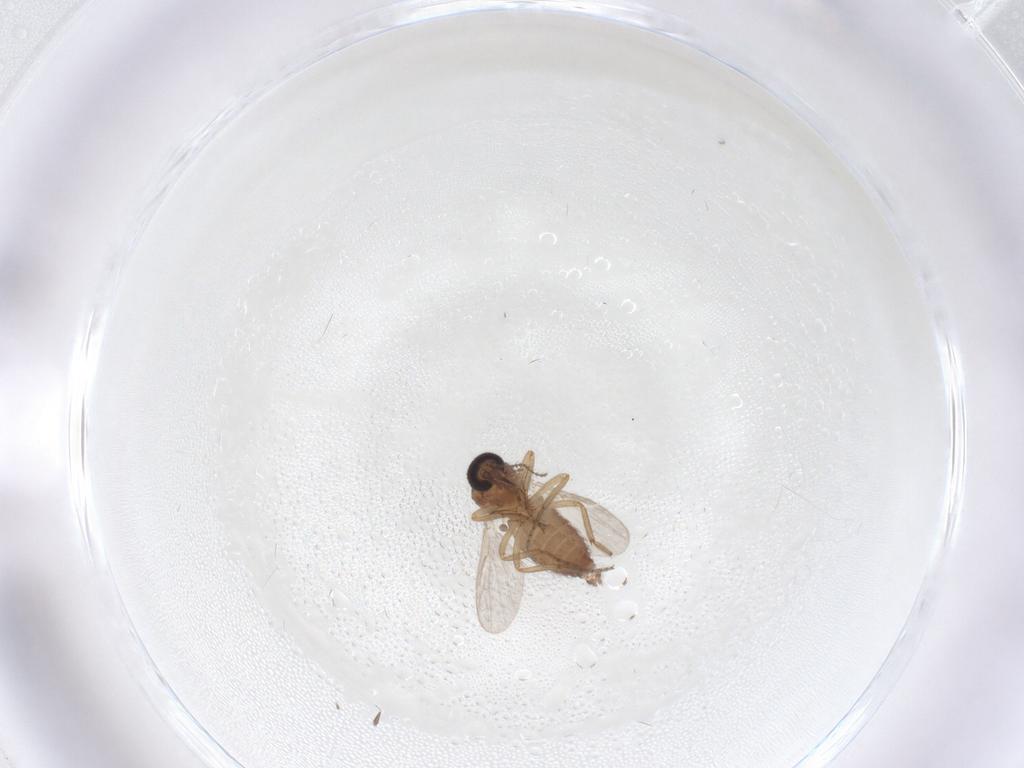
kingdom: Animalia
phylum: Arthropoda
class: Insecta
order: Diptera
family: Ceratopogonidae
